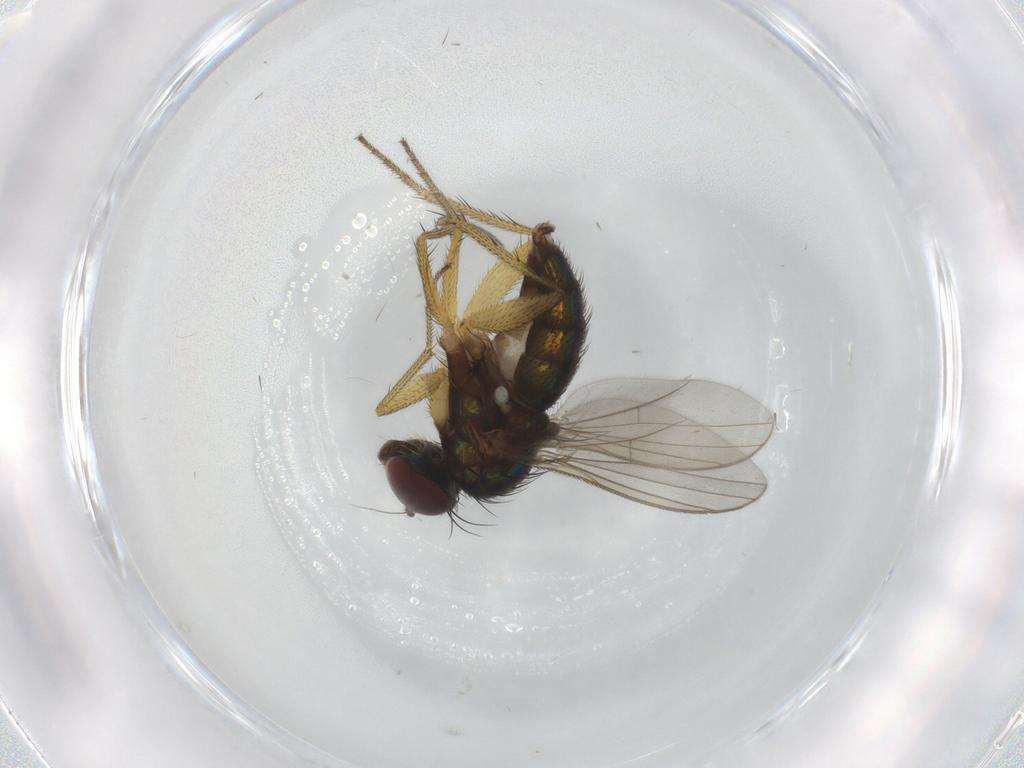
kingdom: Animalia
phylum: Arthropoda
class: Insecta
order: Diptera
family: Dolichopodidae
